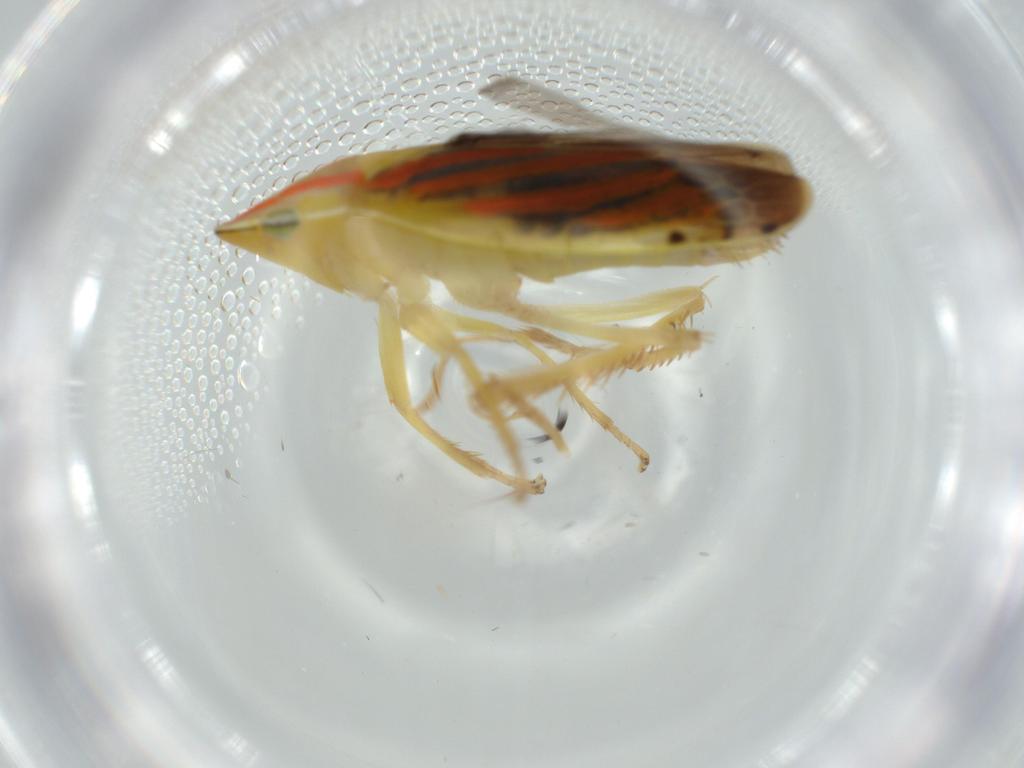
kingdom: Animalia
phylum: Arthropoda
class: Insecta
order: Hemiptera
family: Cicadellidae
